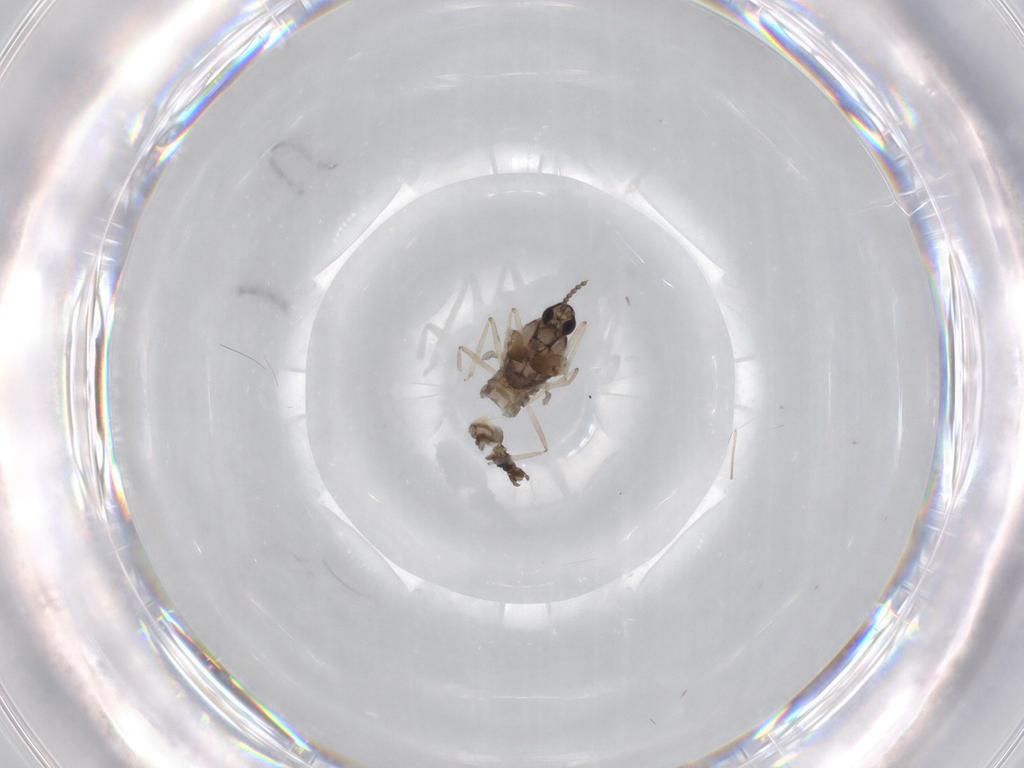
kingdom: Animalia
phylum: Arthropoda
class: Insecta
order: Diptera
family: Cecidomyiidae
